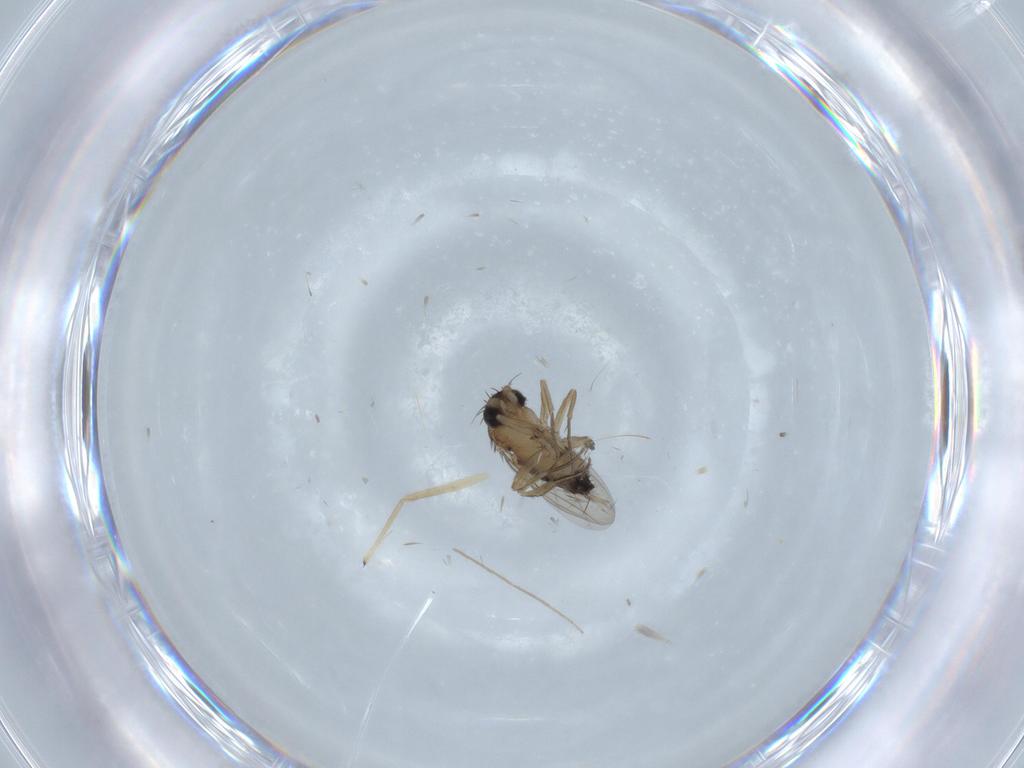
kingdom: Animalia
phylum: Arthropoda
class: Insecta
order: Diptera
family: Phoridae
